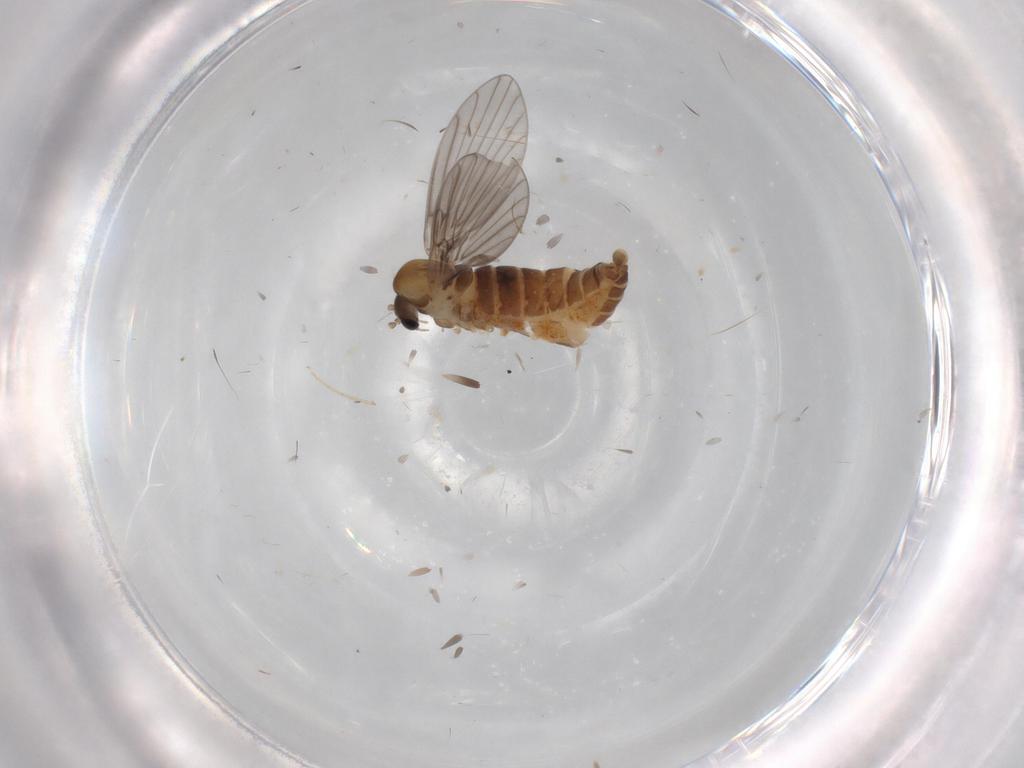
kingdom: Animalia
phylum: Arthropoda
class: Insecta
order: Diptera
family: Chironomidae
